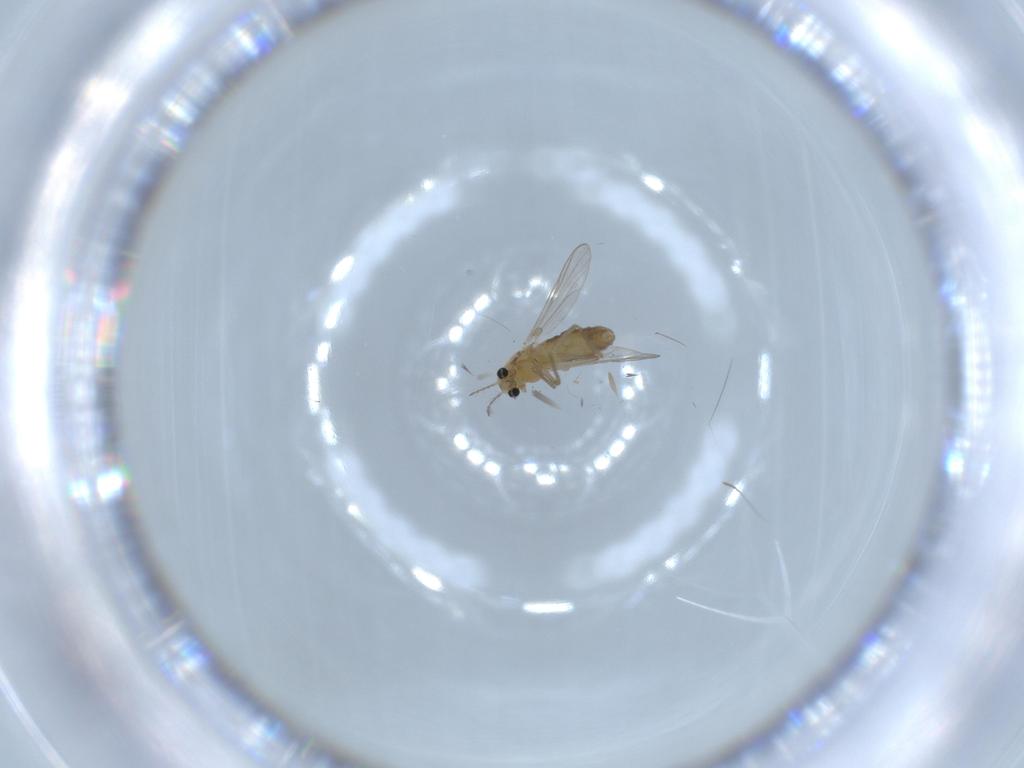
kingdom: Animalia
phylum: Arthropoda
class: Insecta
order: Diptera
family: Chironomidae
